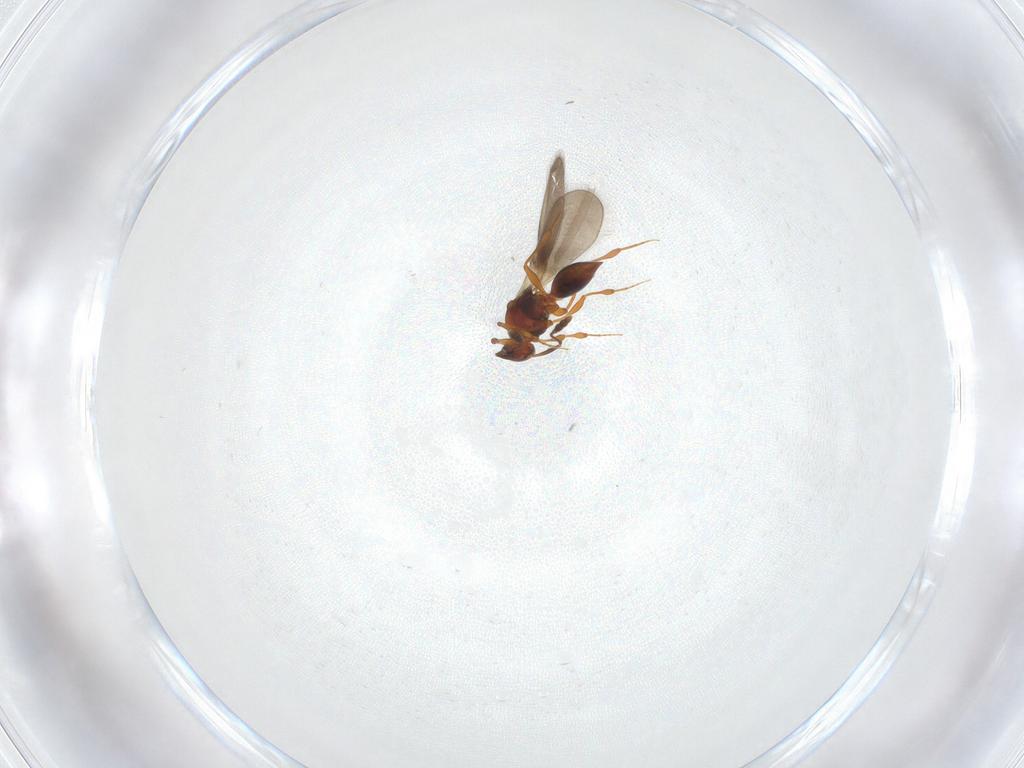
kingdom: Animalia
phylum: Arthropoda
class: Insecta
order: Hymenoptera
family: Platygastridae
